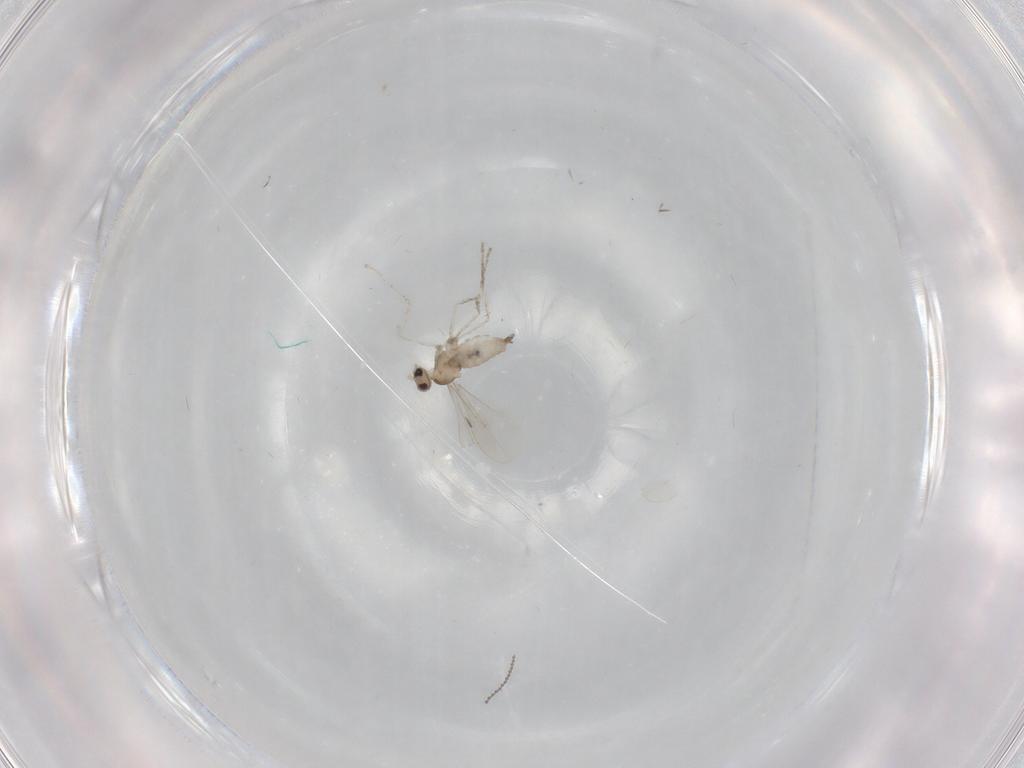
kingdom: Animalia
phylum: Arthropoda
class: Insecta
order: Diptera
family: Cecidomyiidae
